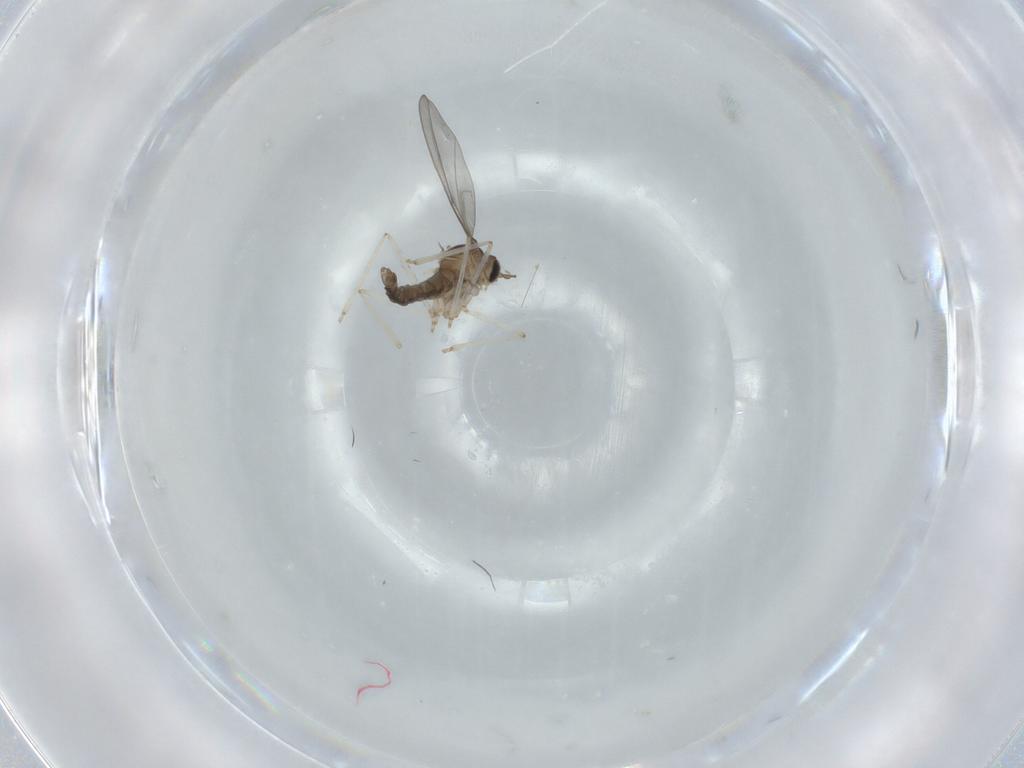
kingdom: Animalia
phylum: Arthropoda
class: Insecta
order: Diptera
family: Cecidomyiidae
